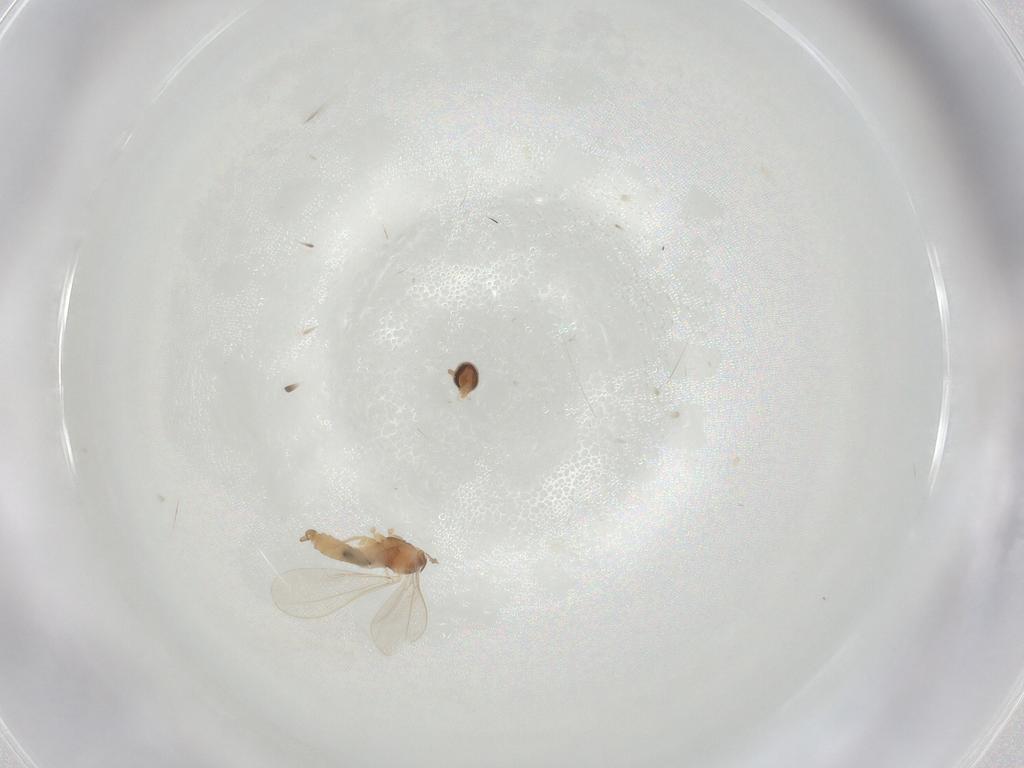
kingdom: Animalia
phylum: Arthropoda
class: Insecta
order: Diptera
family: Cecidomyiidae
